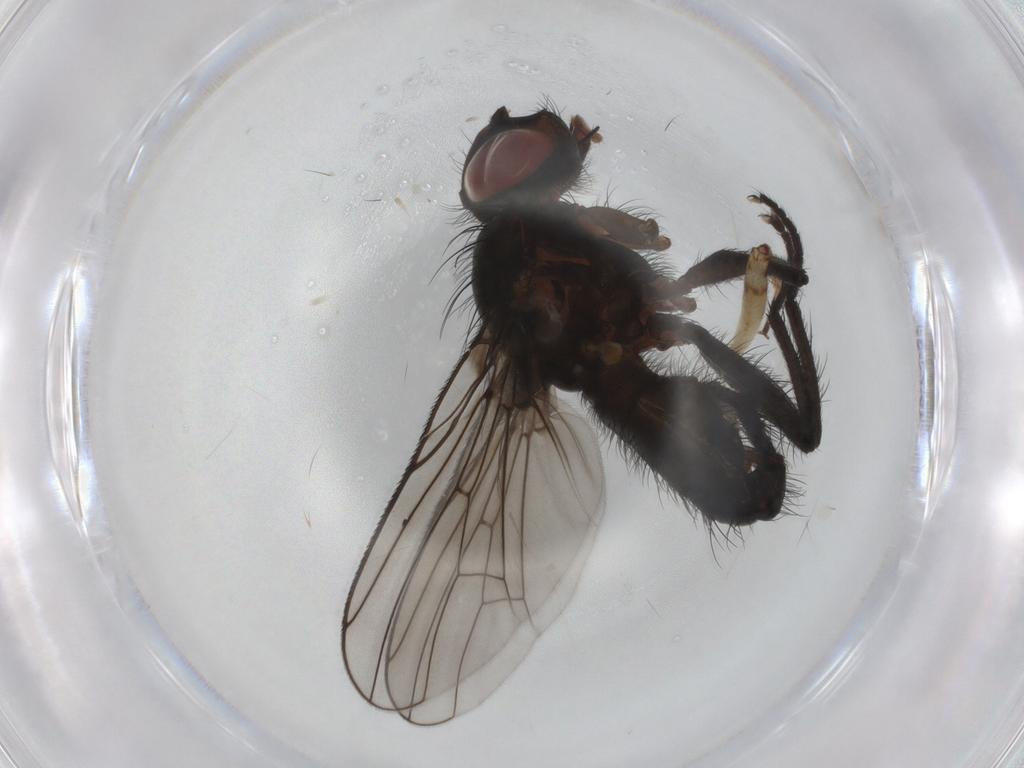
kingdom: Animalia
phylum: Arthropoda
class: Insecta
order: Diptera
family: Anthomyiidae
